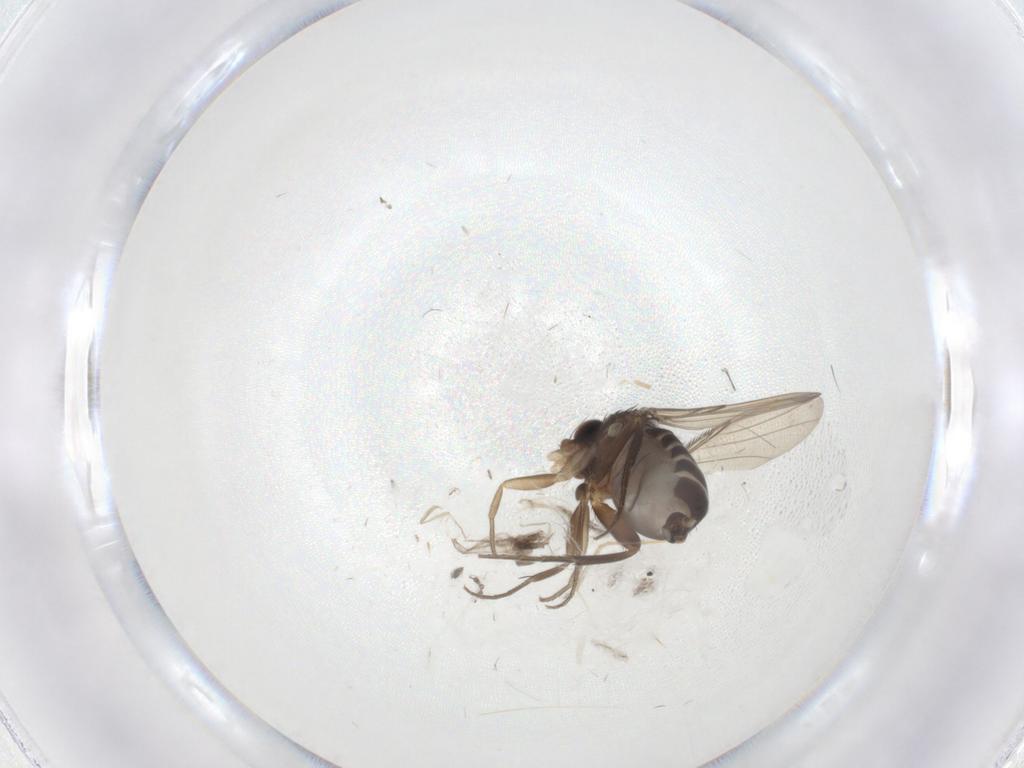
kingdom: Animalia
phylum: Arthropoda
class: Insecta
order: Diptera
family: Phoridae
